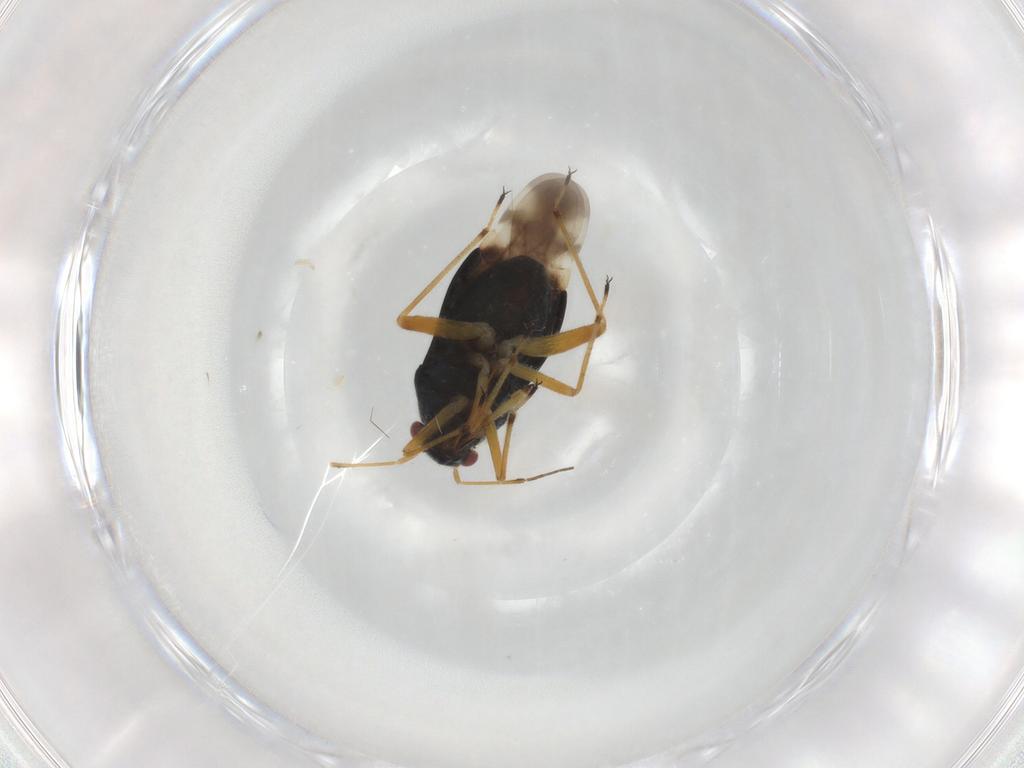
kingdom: Animalia
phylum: Arthropoda
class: Insecta
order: Hemiptera
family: Miridae
